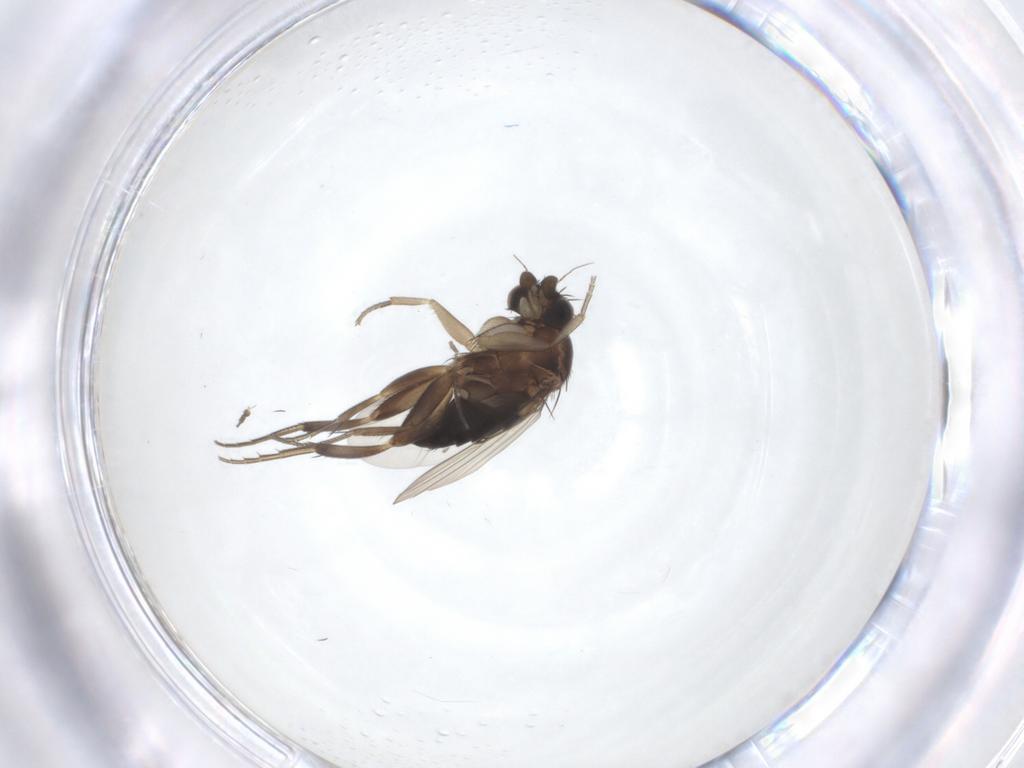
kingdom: Animalia
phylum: Arthropoda
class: Insecta
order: Diptera
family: Phoridae
